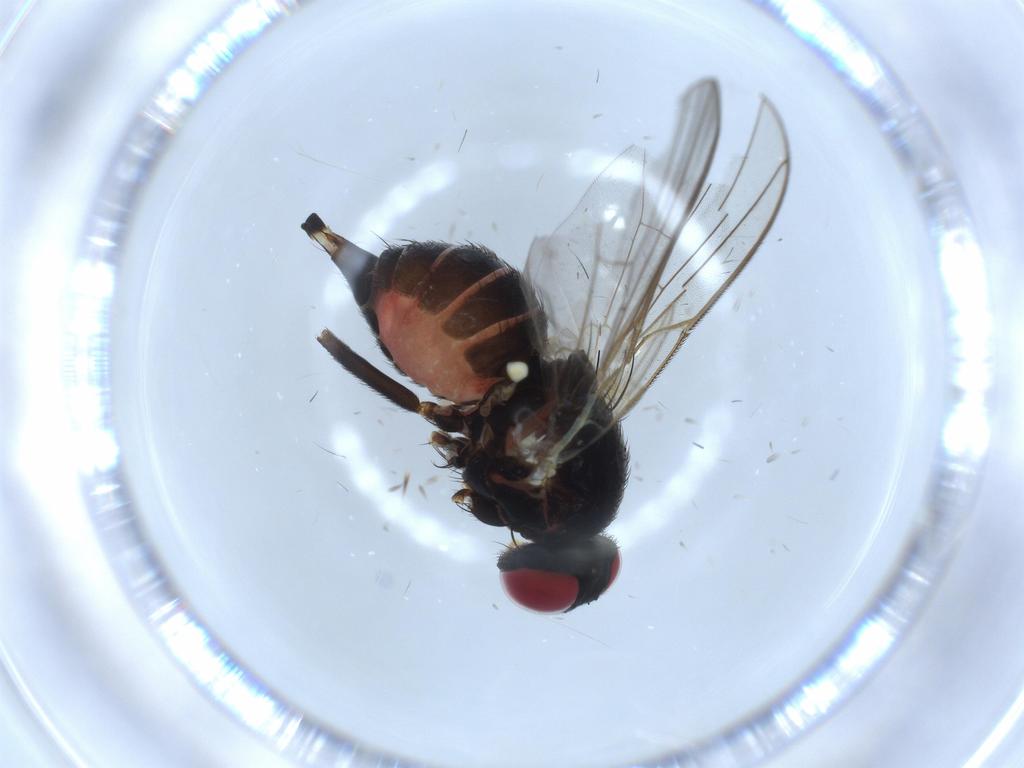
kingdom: Animalia
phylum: Arthropoda
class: Insecta
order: Diptera
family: Agromyzidae
